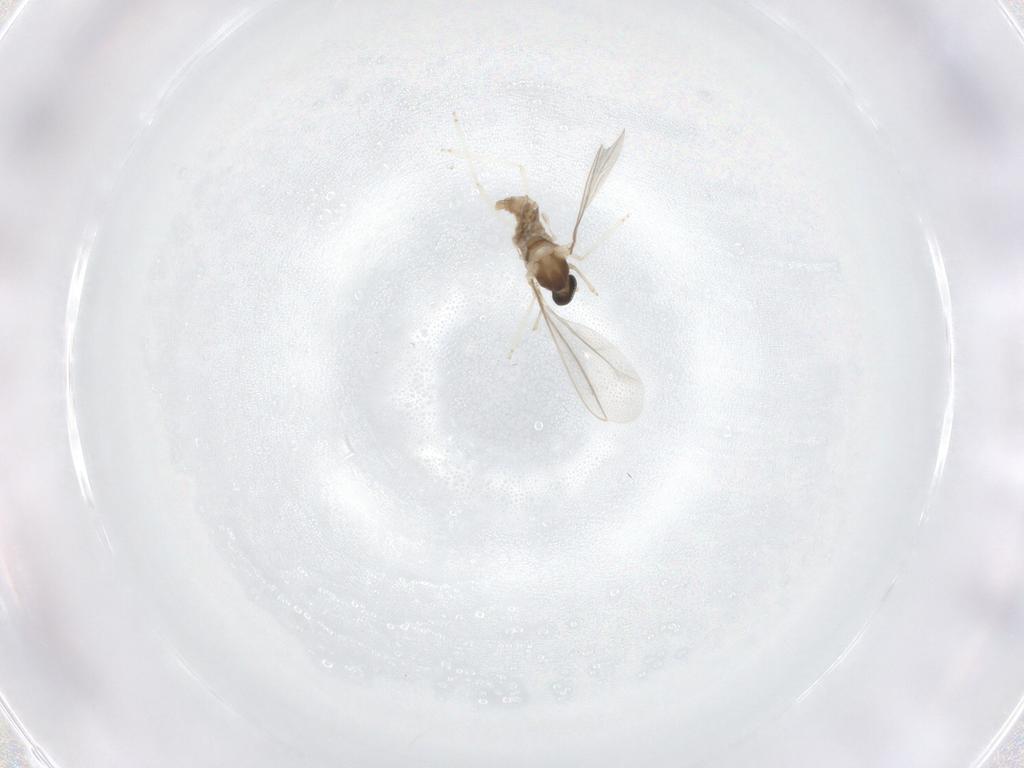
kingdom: Animalia
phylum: Arthropoda
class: Insecta
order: Diptera
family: Cecidomyiidae
